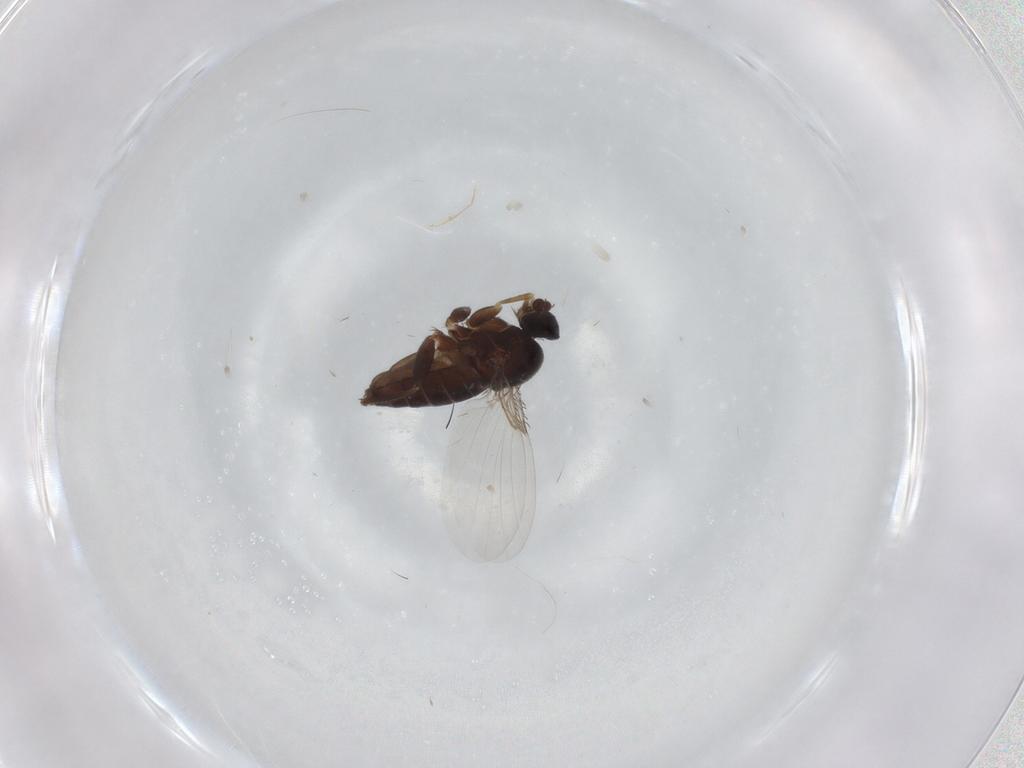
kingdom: Animalia
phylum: Arthropoda
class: Insecta
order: Diptera
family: Phoridae
